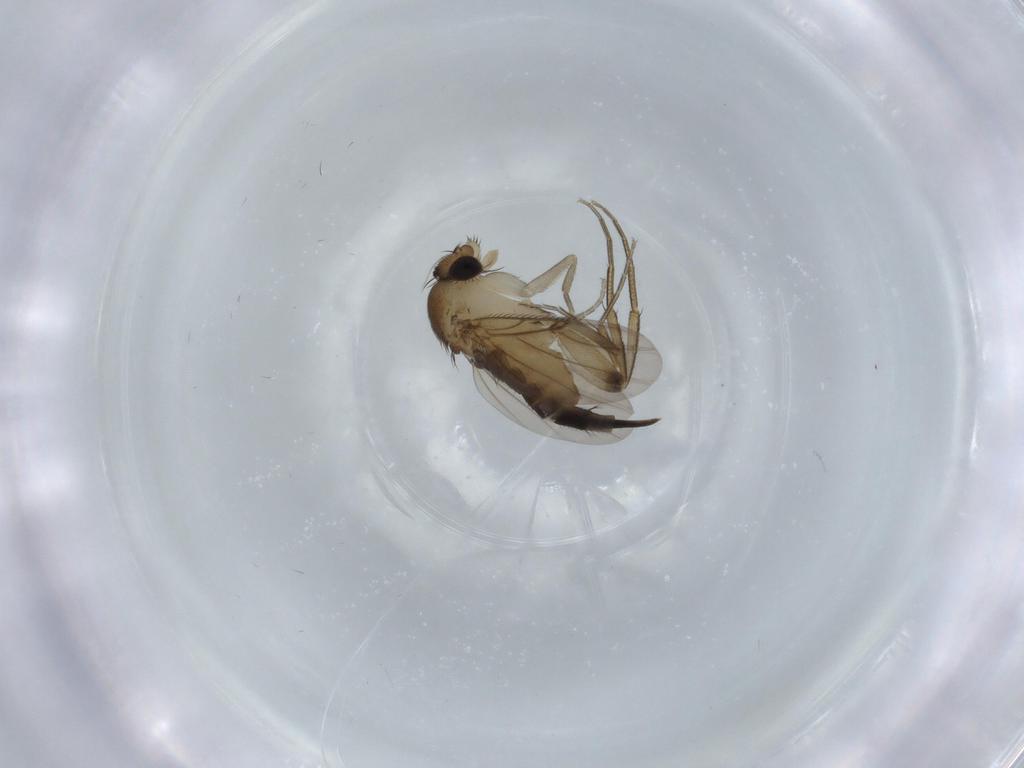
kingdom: Animalia
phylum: Arthropoda
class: Insecta
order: Diptera
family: Phoridae
